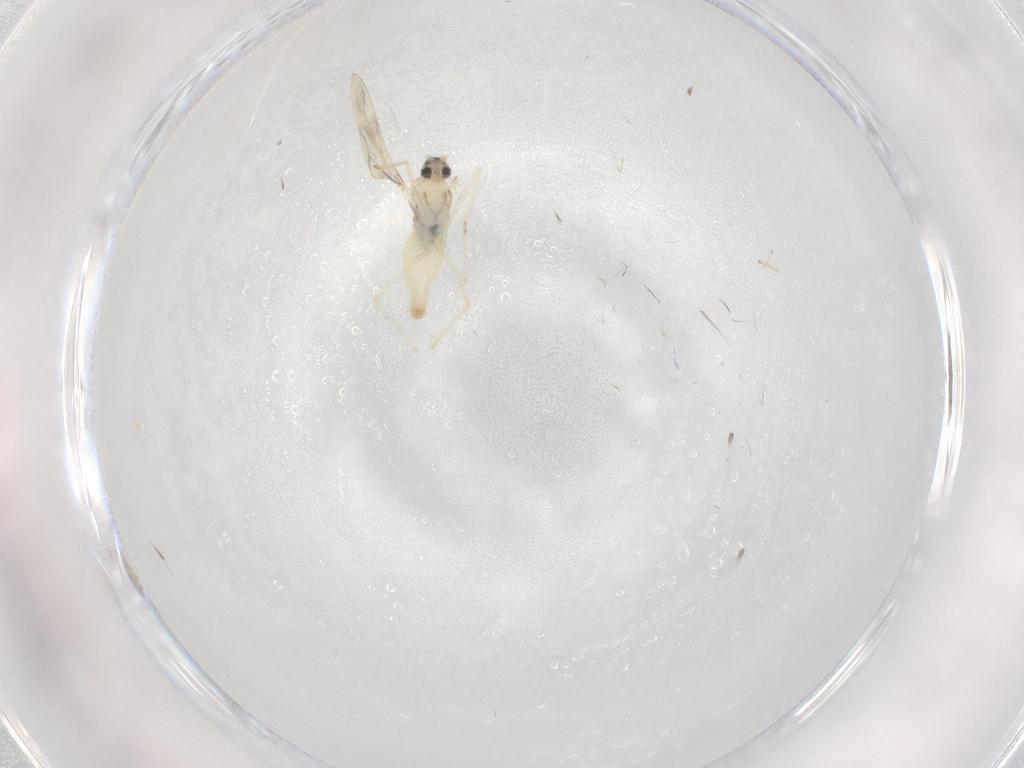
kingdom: Animalia
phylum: Arthropoda
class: Insecta
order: Diptera
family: Cecidomyiidae
